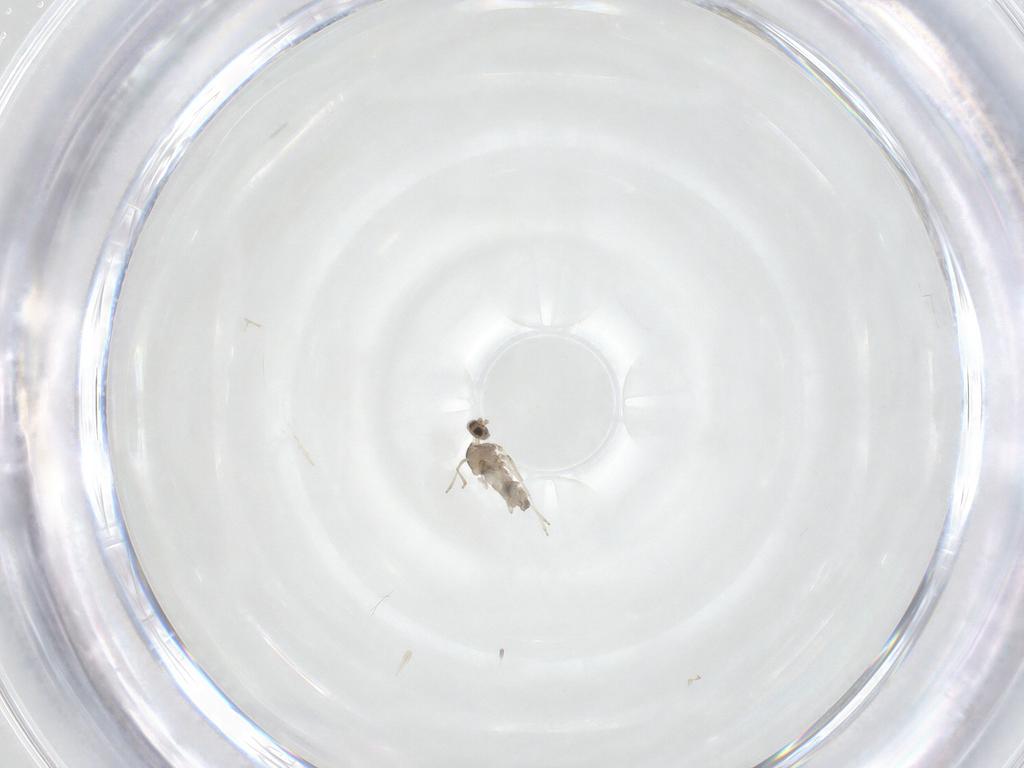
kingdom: Animalia
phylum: Arthropoda
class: Insecta
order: Diptera
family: Cecidomyiidae
